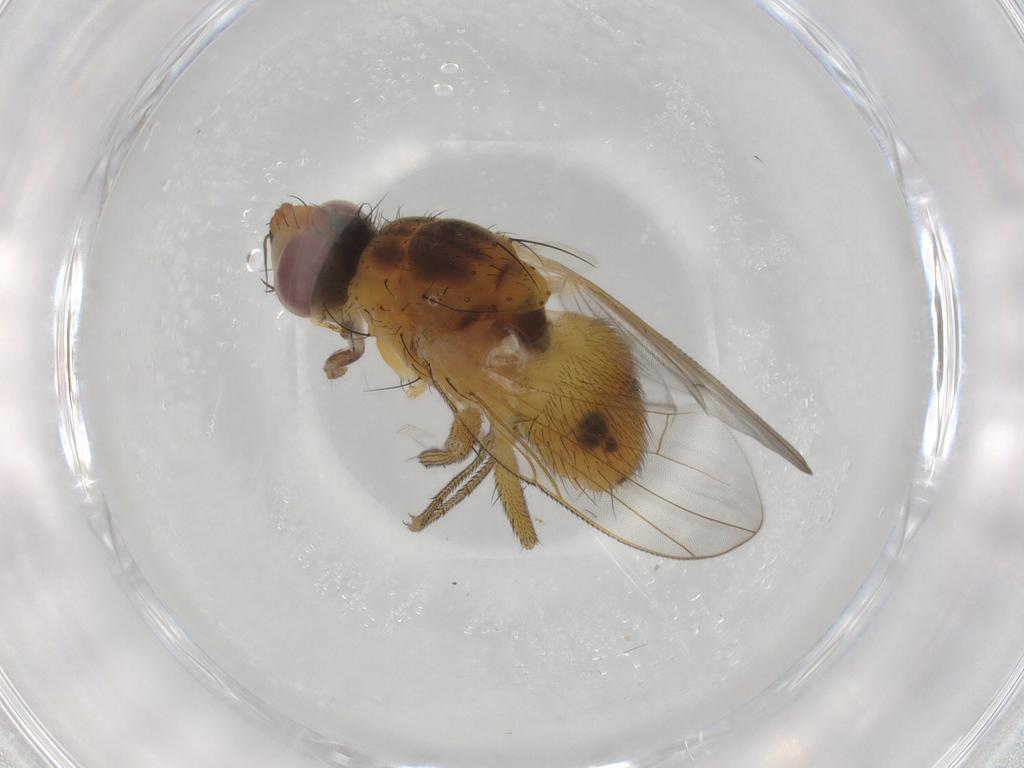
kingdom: Animalia
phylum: Arthropoda
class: Insecta
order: Diptera
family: Muscidae
